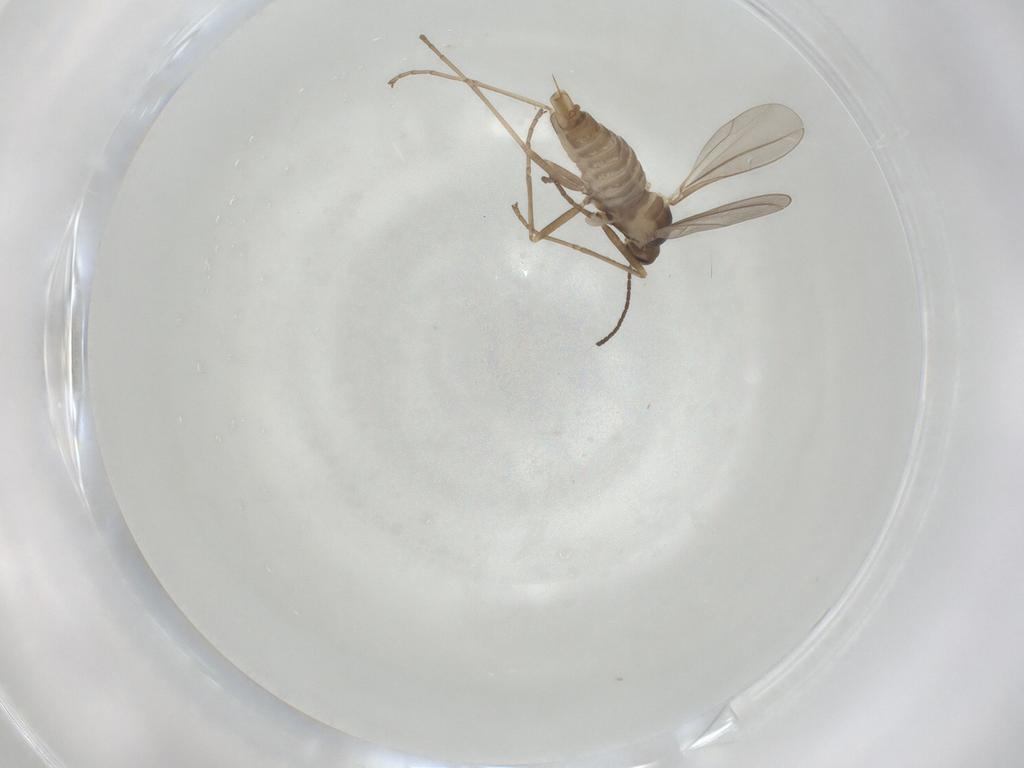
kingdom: Animalia
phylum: Arthropoda
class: Insecta
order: Diptera
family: Cecidomyiidae
